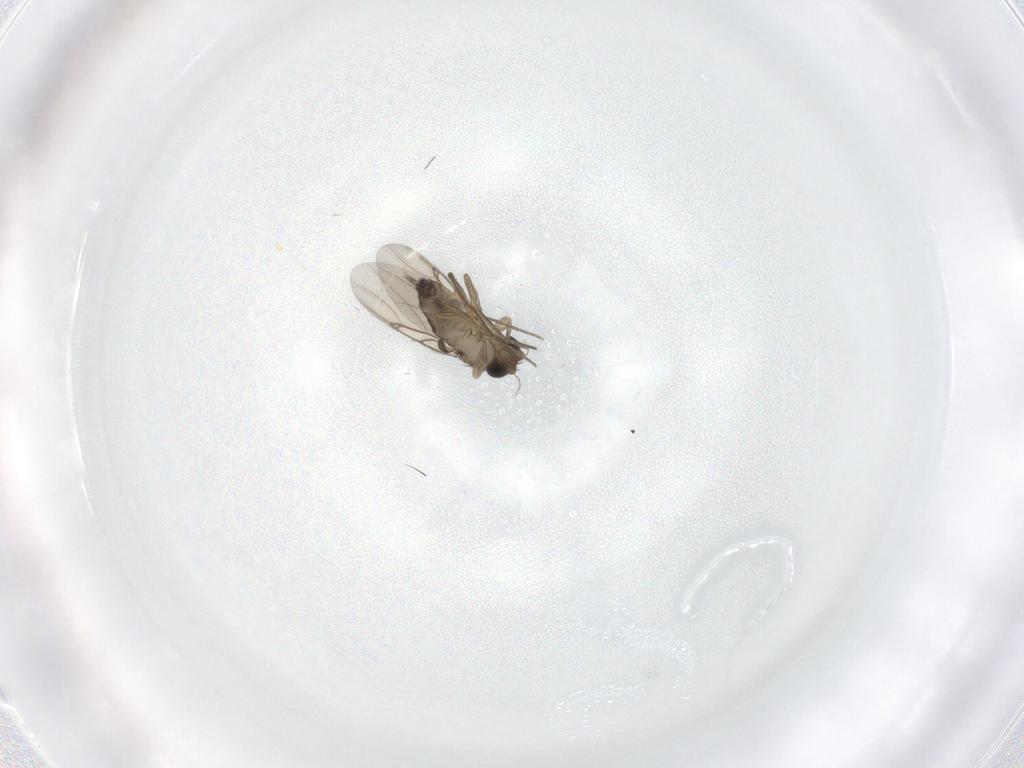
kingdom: Animalia
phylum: Arthropoda
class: Insecta
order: Diptera
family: Phoridae
